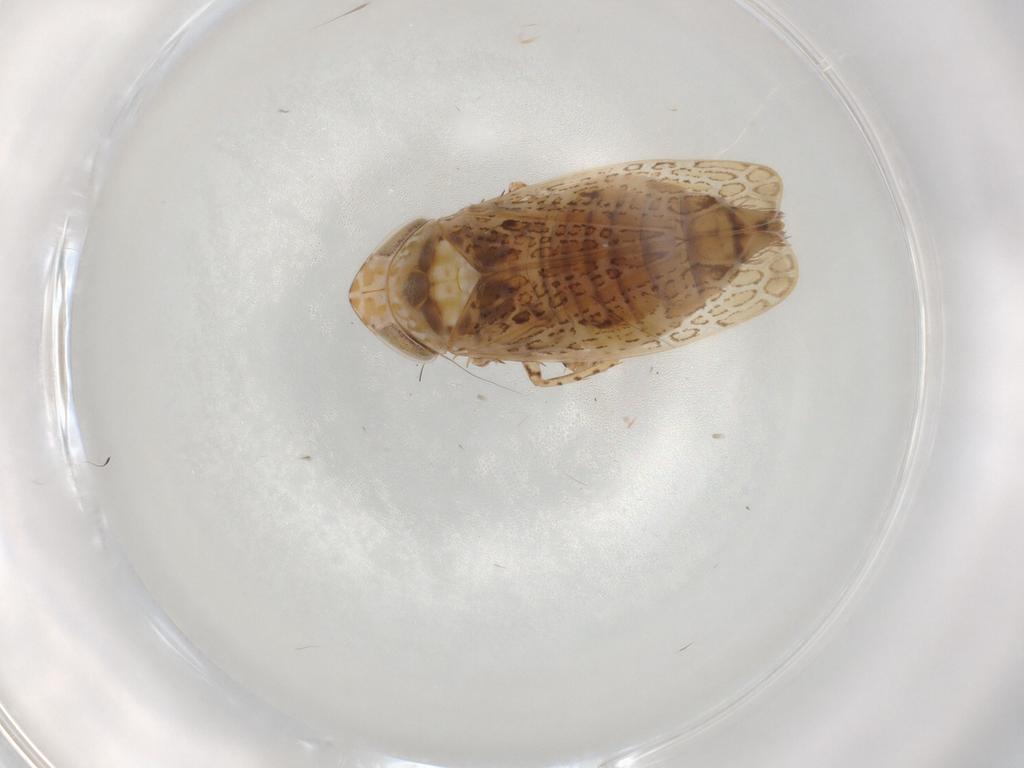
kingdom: Animalia
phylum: Arthropoda
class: Insecta
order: Hemiptera
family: Cicadellidae
